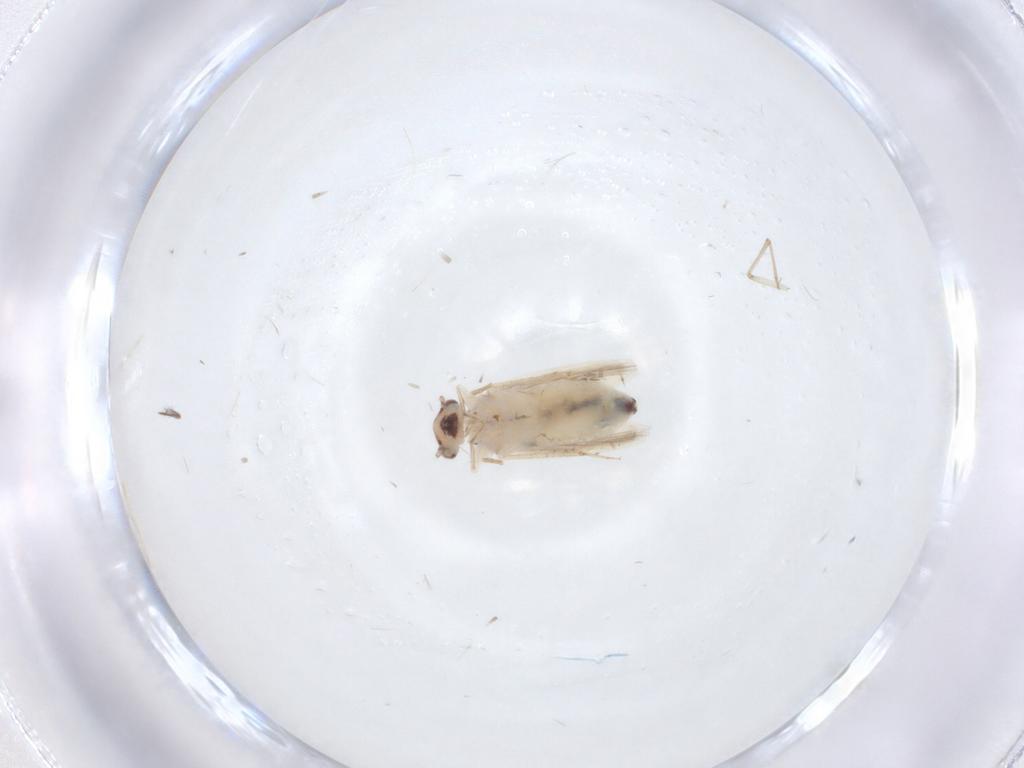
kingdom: Animalia
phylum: Arthropoda
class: Insecta
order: Psocodea
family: Lepidopsocidae
